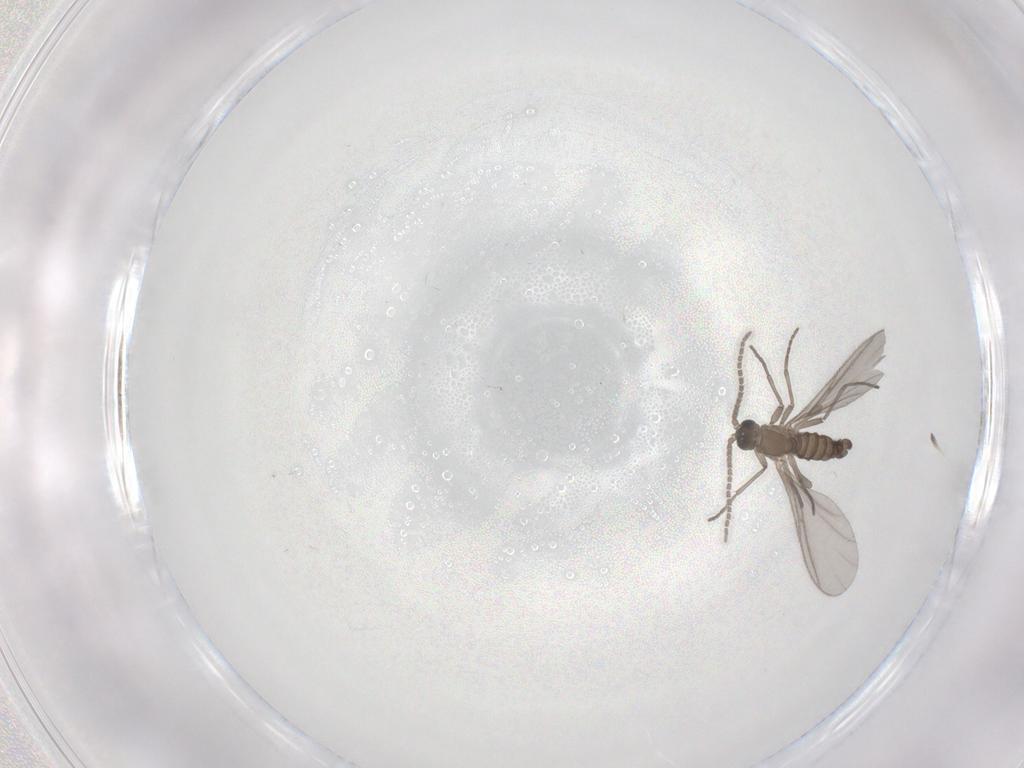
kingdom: Animalia
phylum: Arthropoda
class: Insecta
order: Diptera
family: Sciaridae
